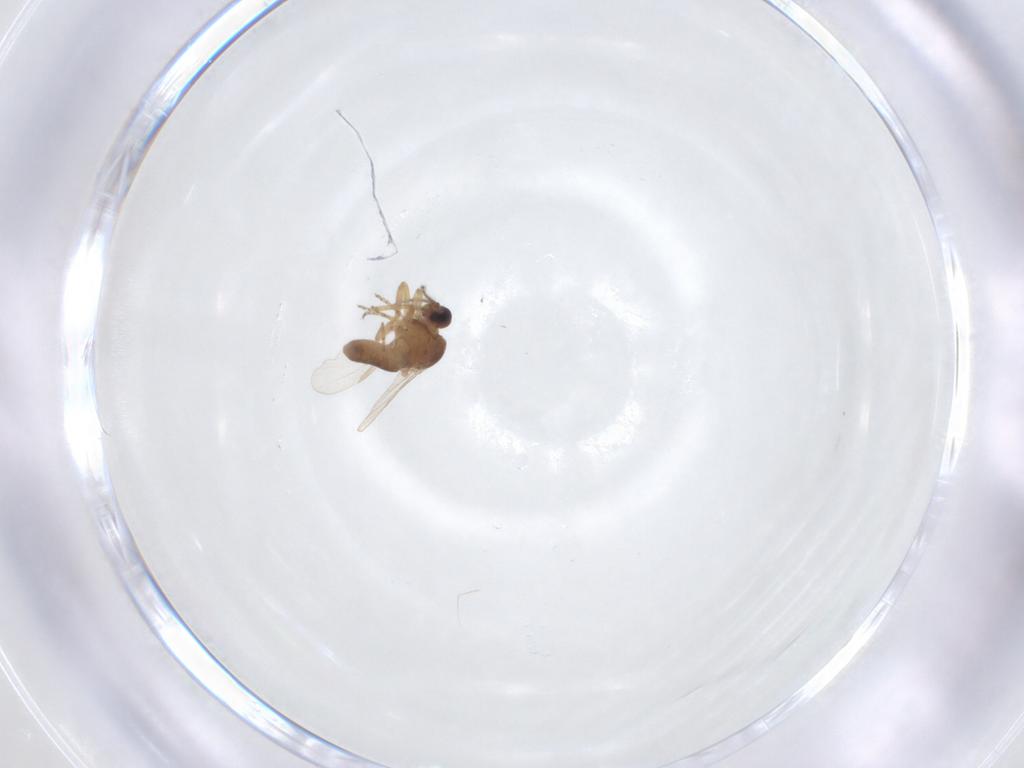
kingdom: Animalia
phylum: Arthropoda
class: Insecta
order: Diptera
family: Ceratopogonidae
